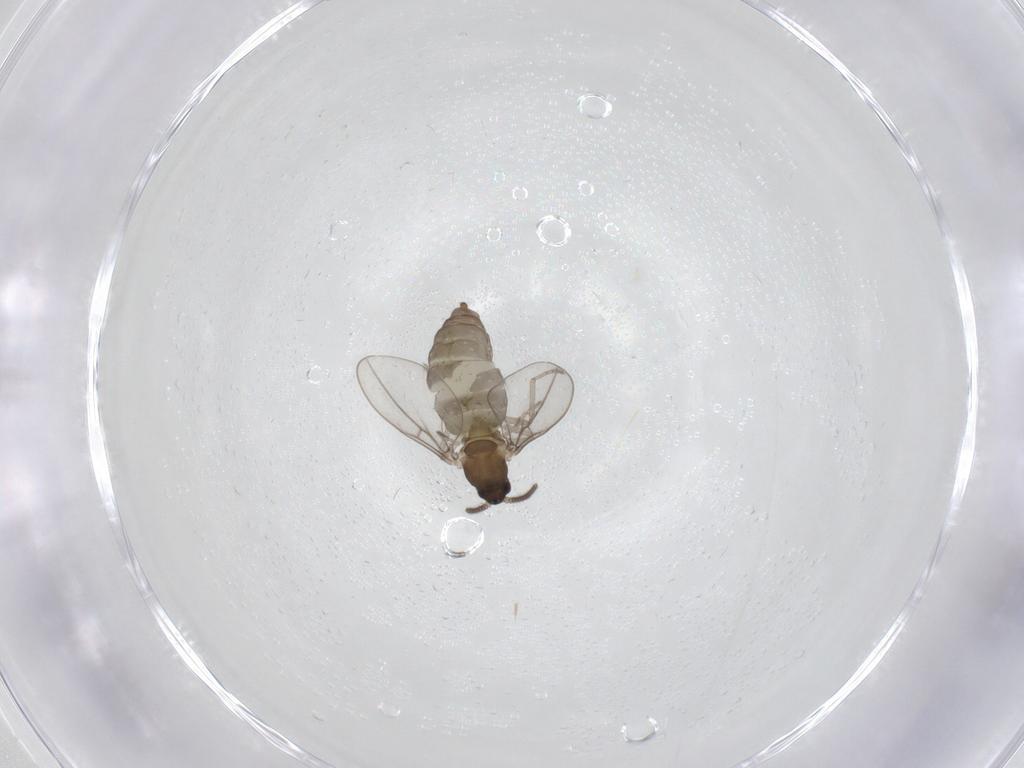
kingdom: Animalia
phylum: Arthropoda
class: Insecta
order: Diptera
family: Cecidomyiidae
